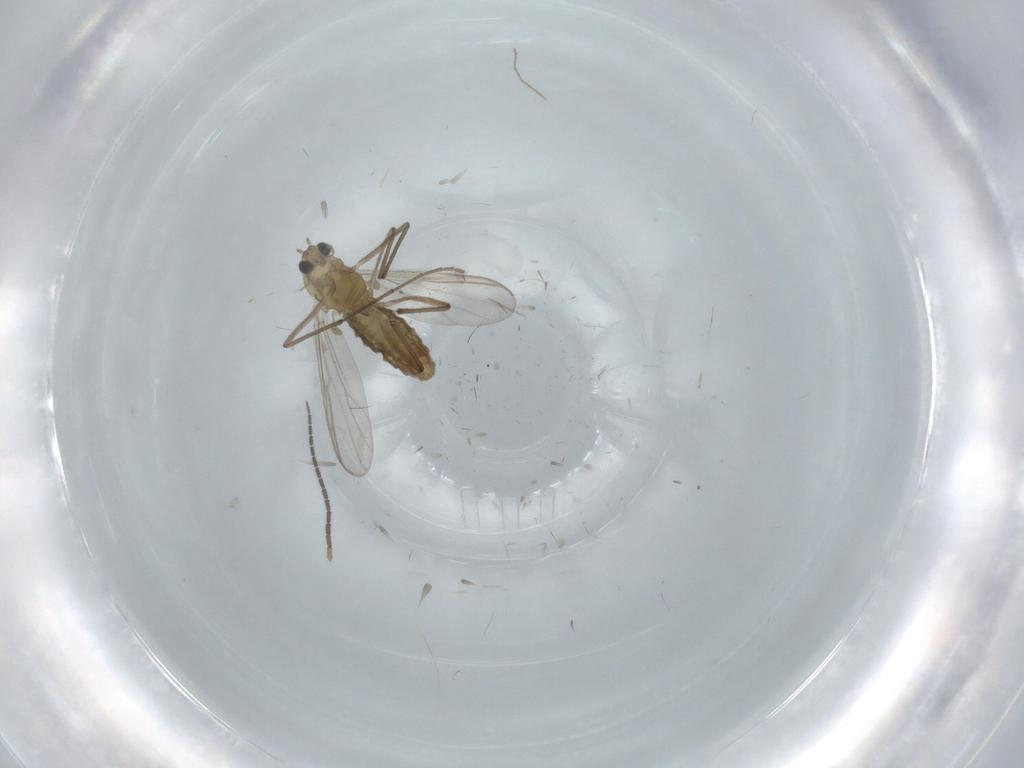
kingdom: Animalia
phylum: Arthropoda
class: Insecta
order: Diptera
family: Chironomidae
